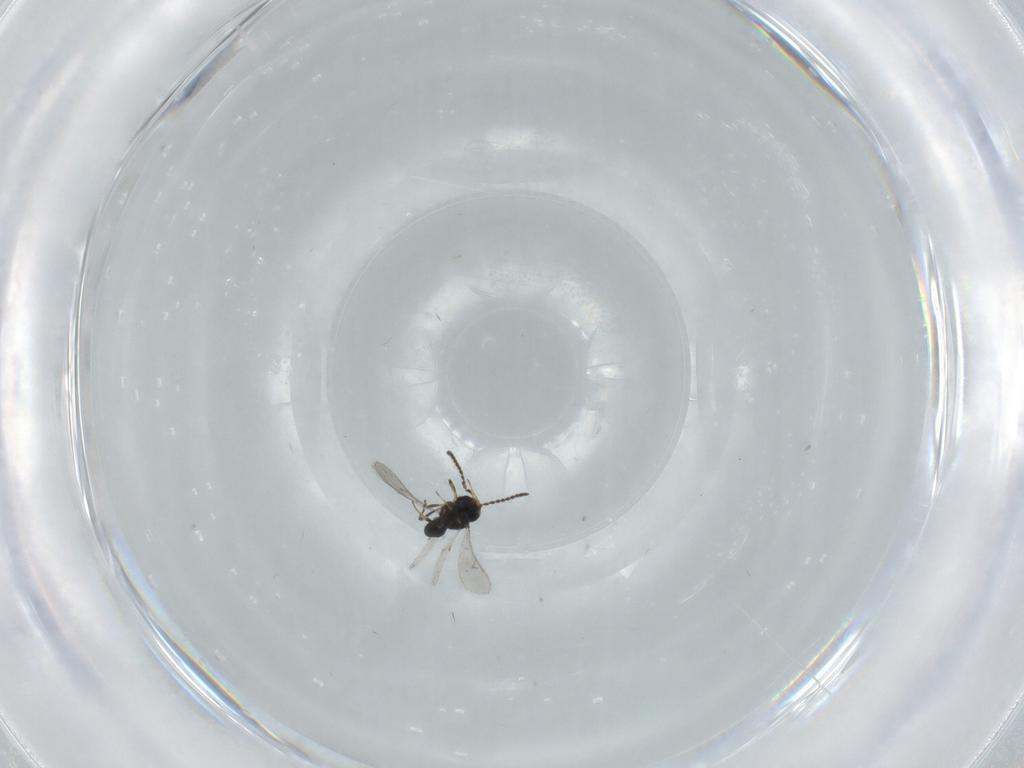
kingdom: Animalia
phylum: Arthropoda
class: Insecta
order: Hymenoptera
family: Scelionidae
